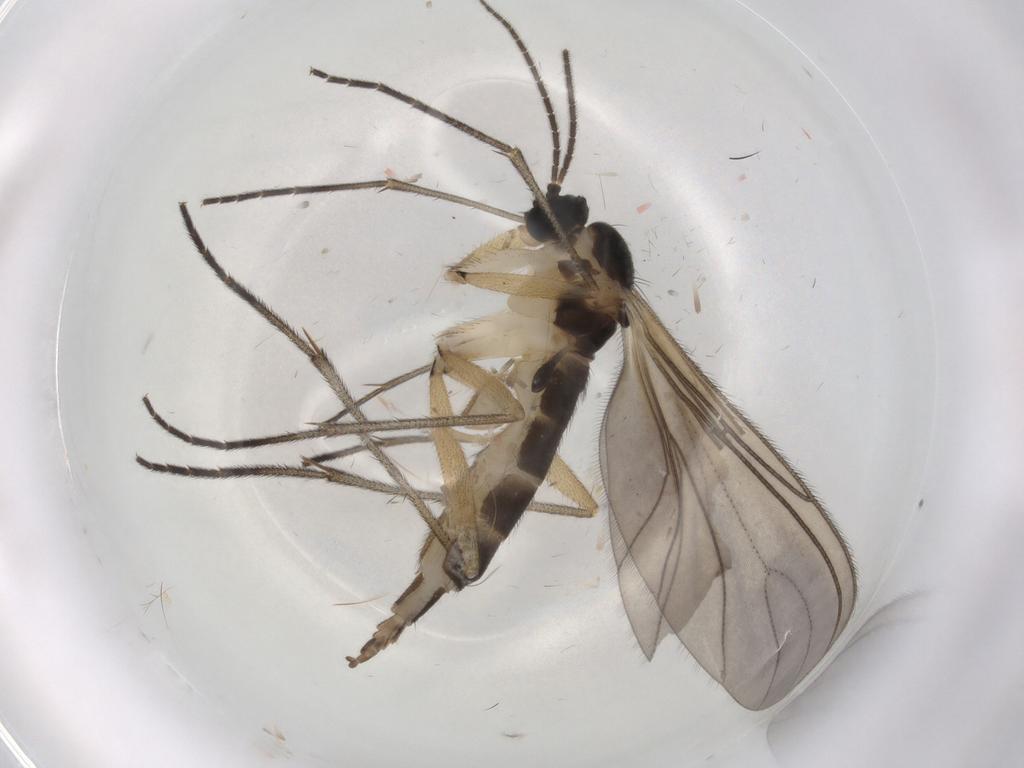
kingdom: Animalia
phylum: Arthropoda
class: Insecta
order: Diptera
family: Sciaridae
